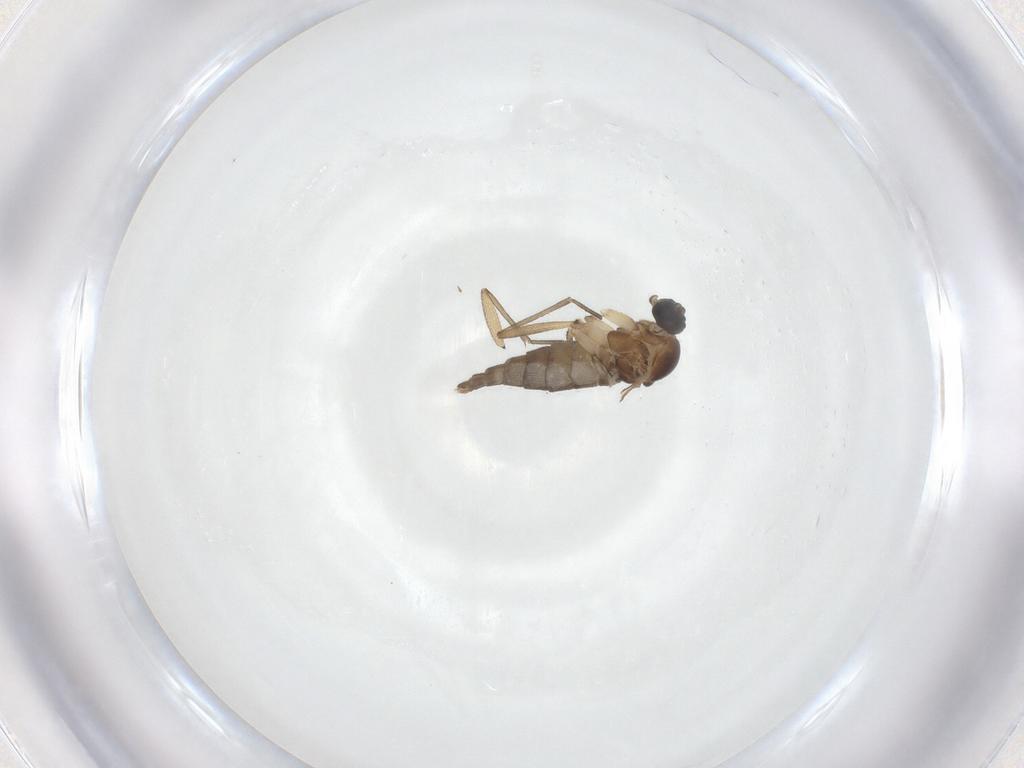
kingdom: Animalia
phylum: Arthropoda
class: Insecta
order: Diptera
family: Sciaridae
